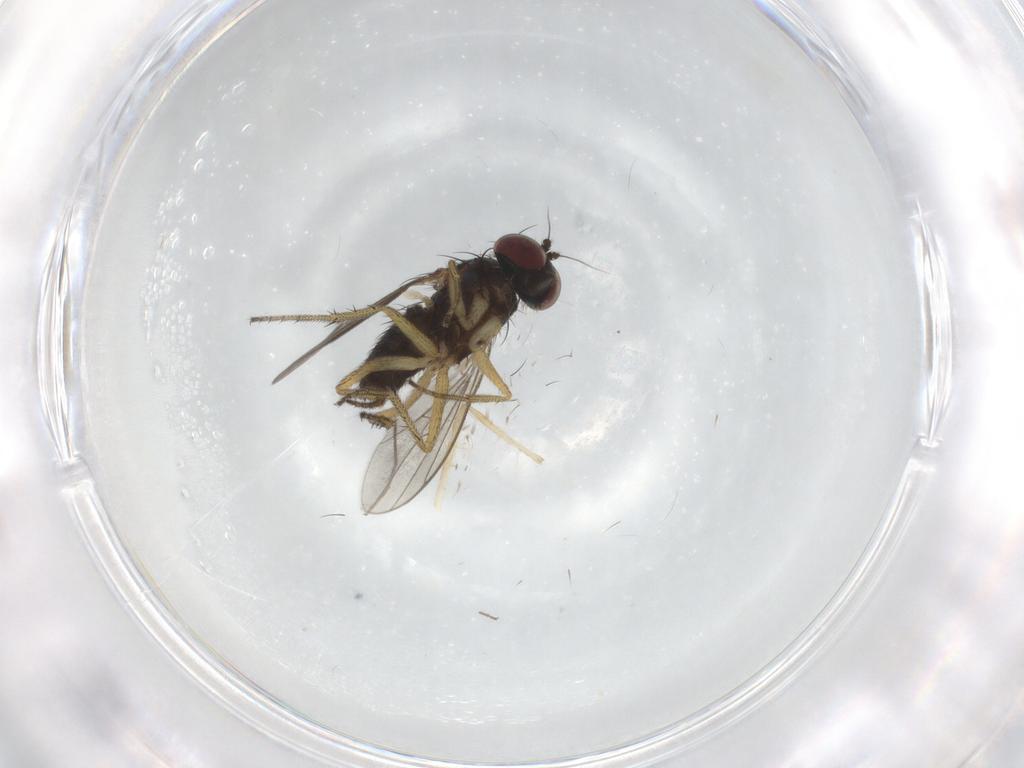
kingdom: Animalia
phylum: Arthropoda
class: Insecta
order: Diptera
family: Chironomidae
